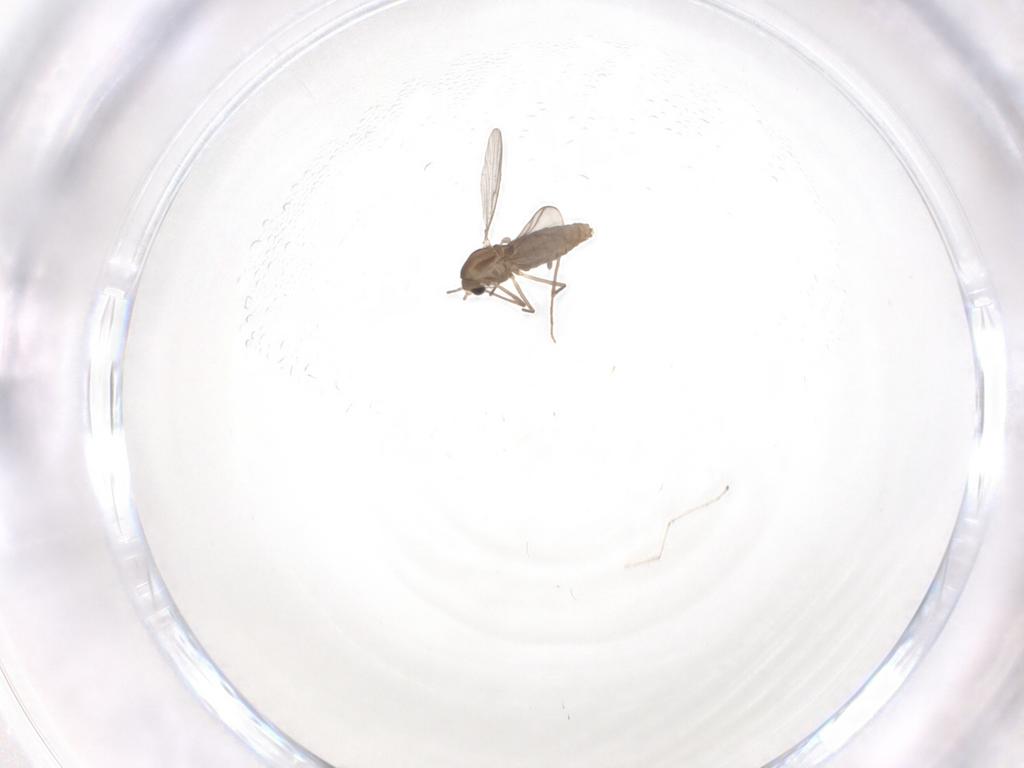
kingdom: Animalia
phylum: Arthropoda
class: Insecta
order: Diptera
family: Chironomidae
